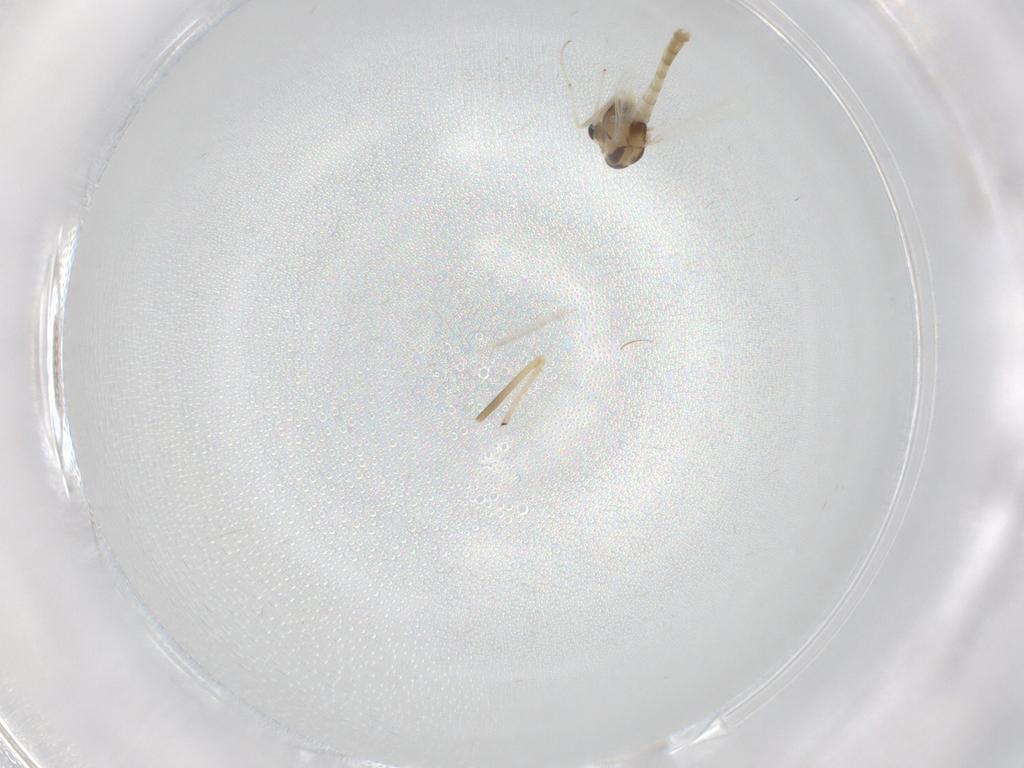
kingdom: Animalia
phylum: Arthropoda
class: Insecta
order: Diptera
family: Chironomidae
